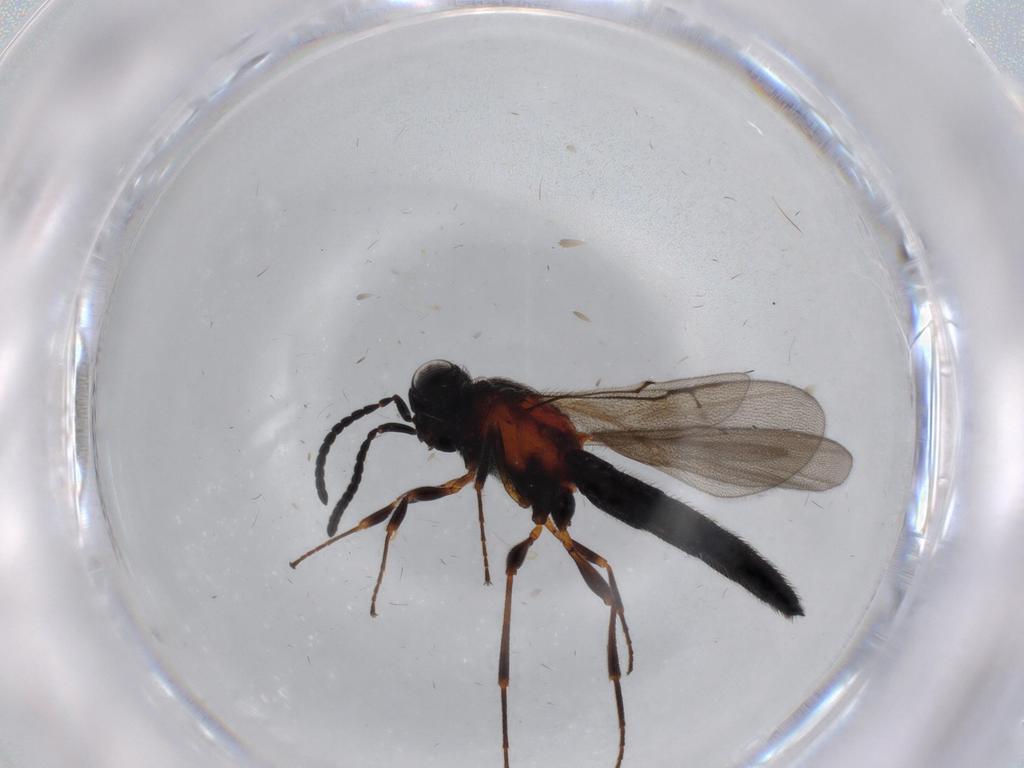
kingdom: Animalia
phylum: Arthropoda
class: Insecta
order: Hymenoptera
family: Scelionidae
